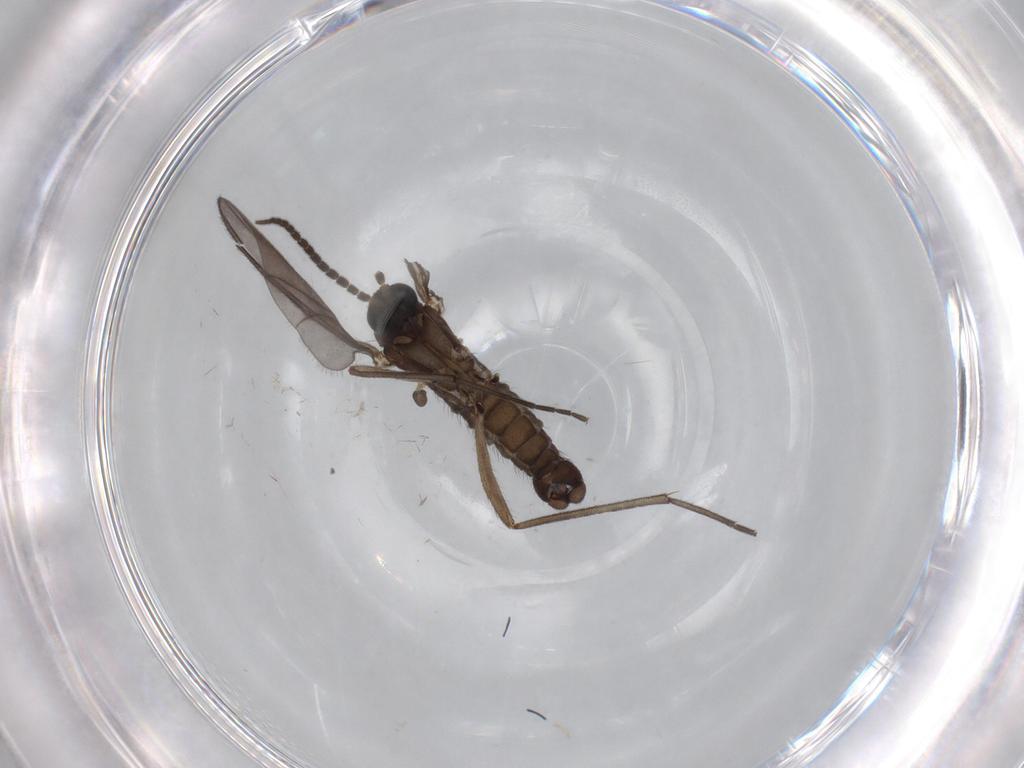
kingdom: Animalia
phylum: Arthropoda
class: Insecta
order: Diptera
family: Sciaridae
